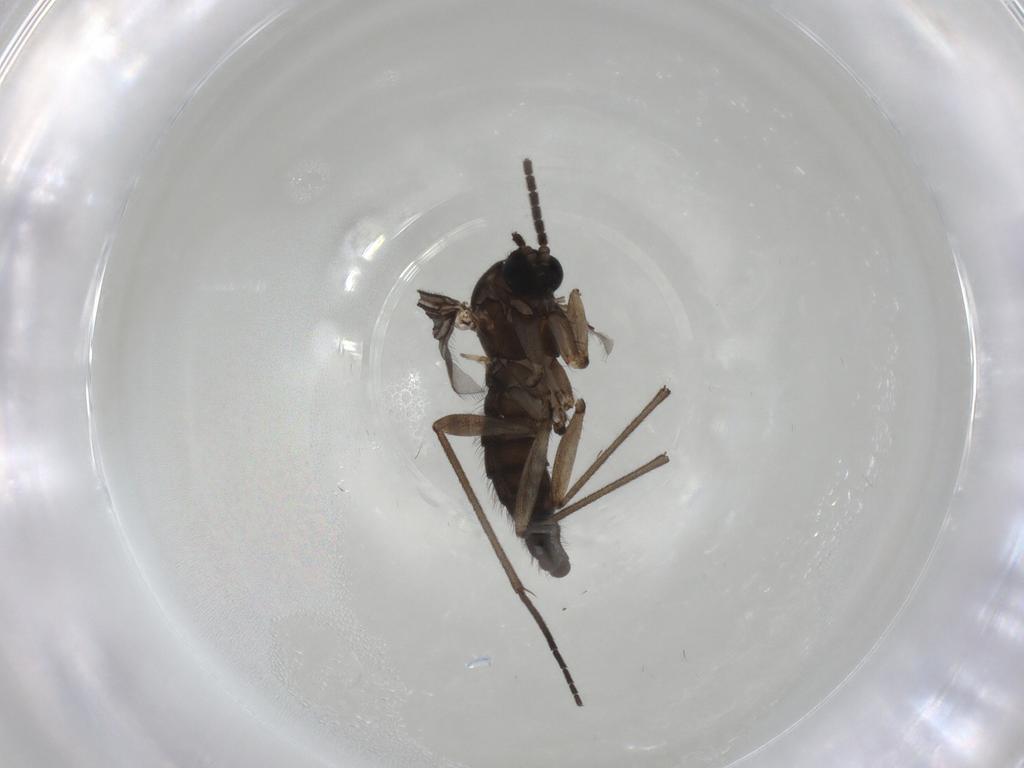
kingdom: Animalia
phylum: Arthropoda
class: Insecta
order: Diptera
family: Sciaridae
